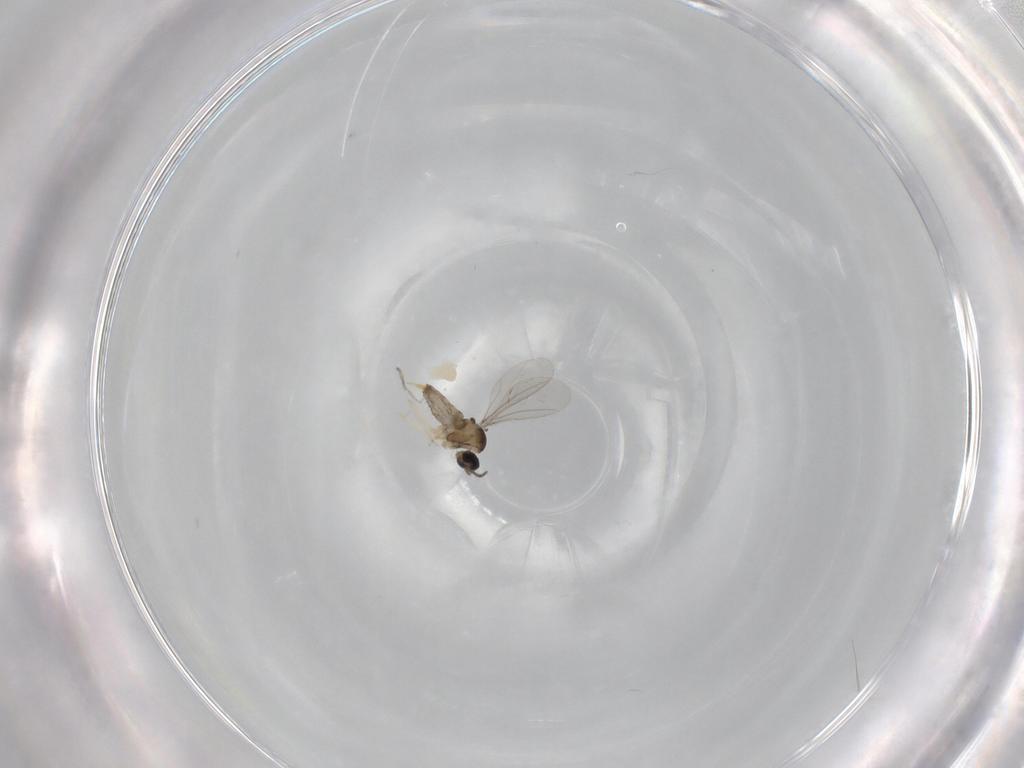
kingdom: Animalia
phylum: Arthropoda
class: Insecta
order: Diptera
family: Cecidomyiidae
